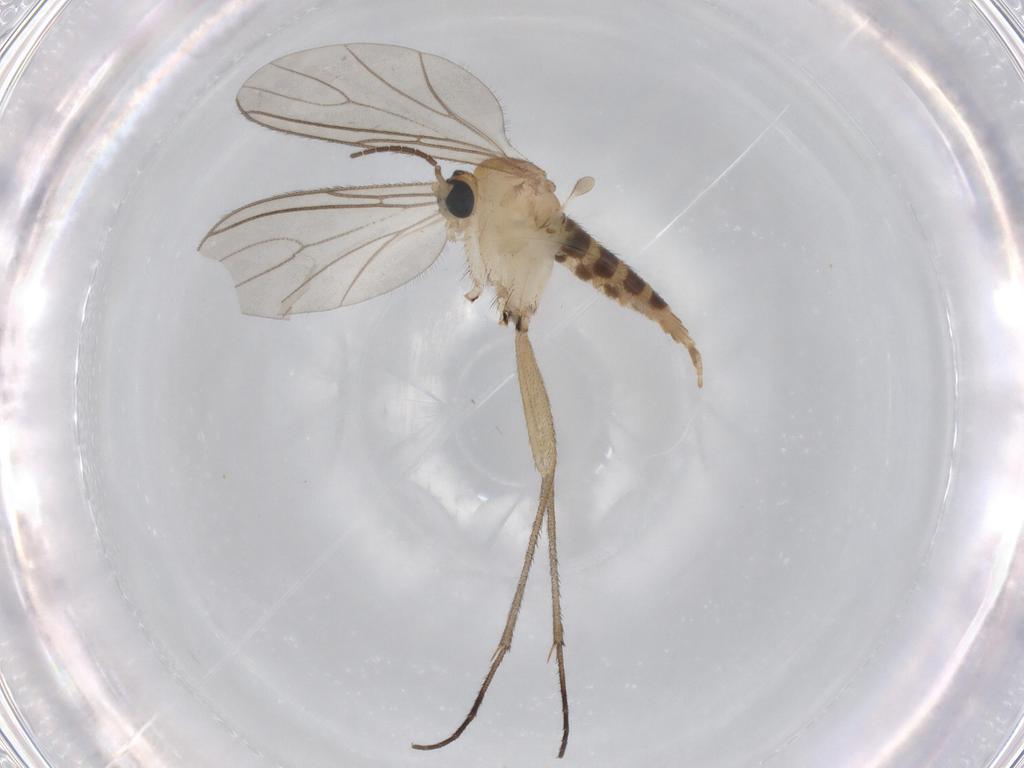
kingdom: Animalia
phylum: Arthropoda
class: Insecta
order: Diptera
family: Sciaridae
